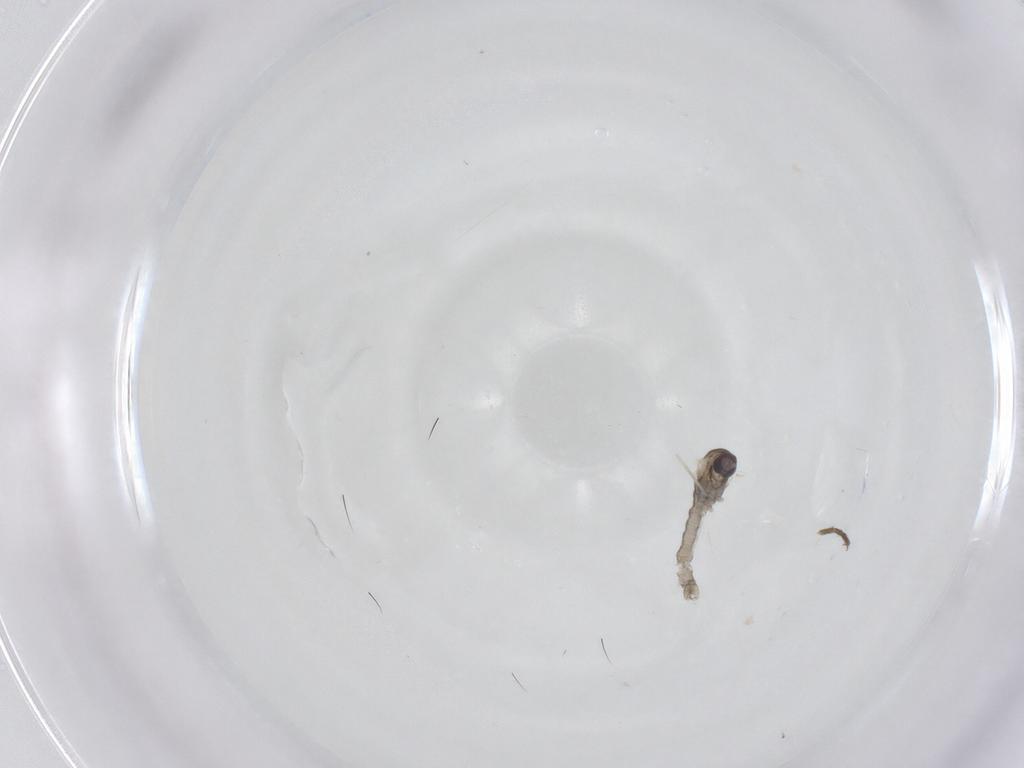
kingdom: Animalia
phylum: Arthropoda
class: Insecta
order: Diptera
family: Cecidomyiidae
